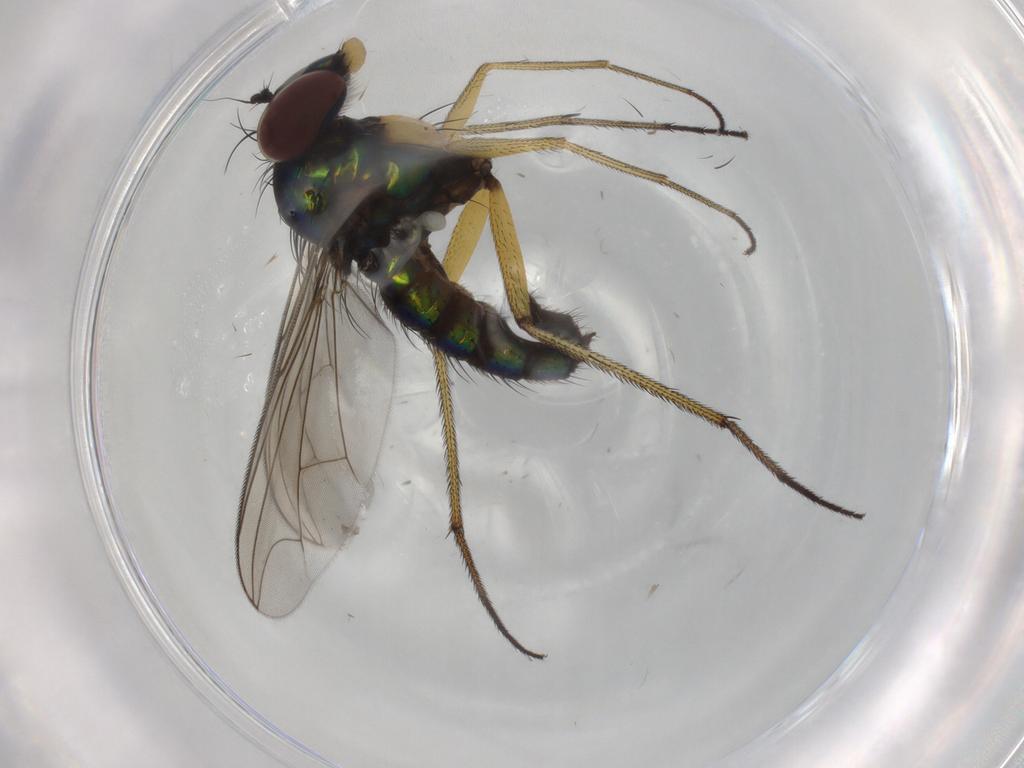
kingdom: Animalia
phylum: Arthropoda
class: Insecta
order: Diptera
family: Dolichopodidae
